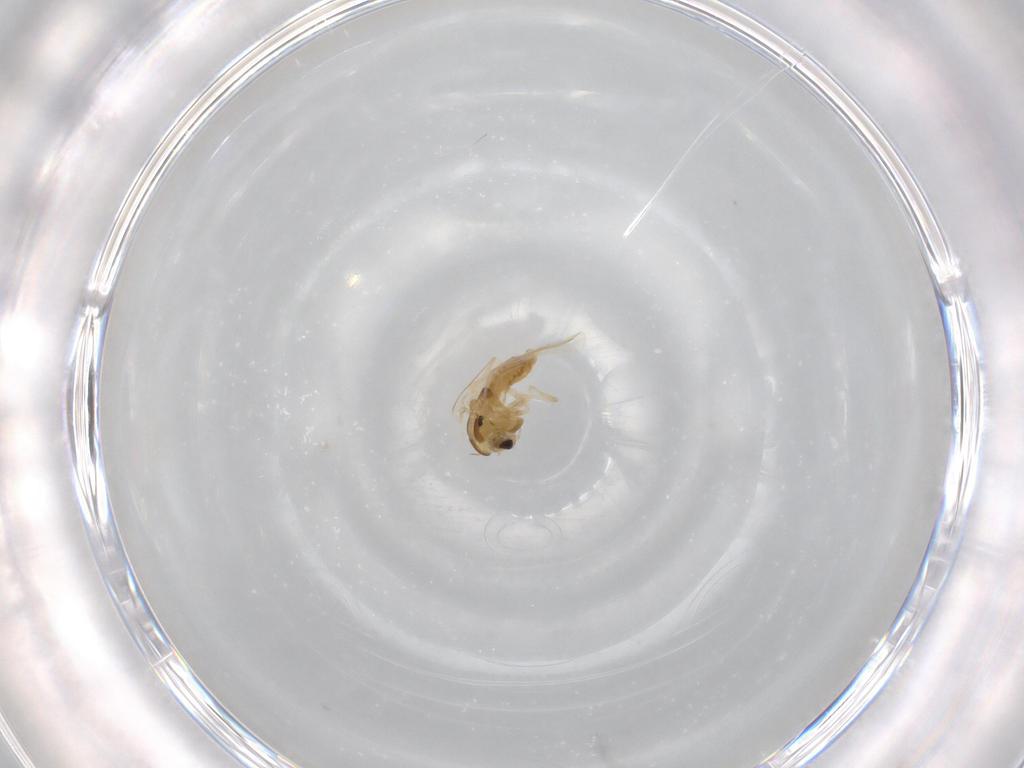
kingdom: Animalia
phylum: Arthropoda
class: Insecta
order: Diptera
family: Chironomidae
